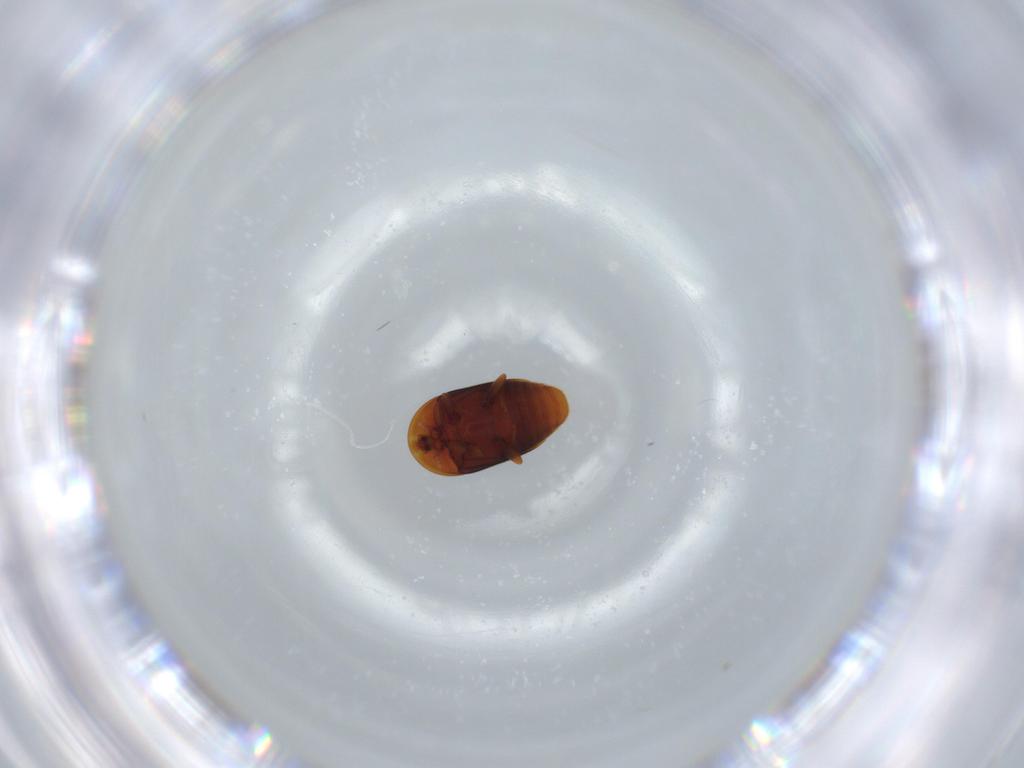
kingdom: Animalia
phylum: Arthropoda
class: Insecta
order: Coleoptera
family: Corylophidae
